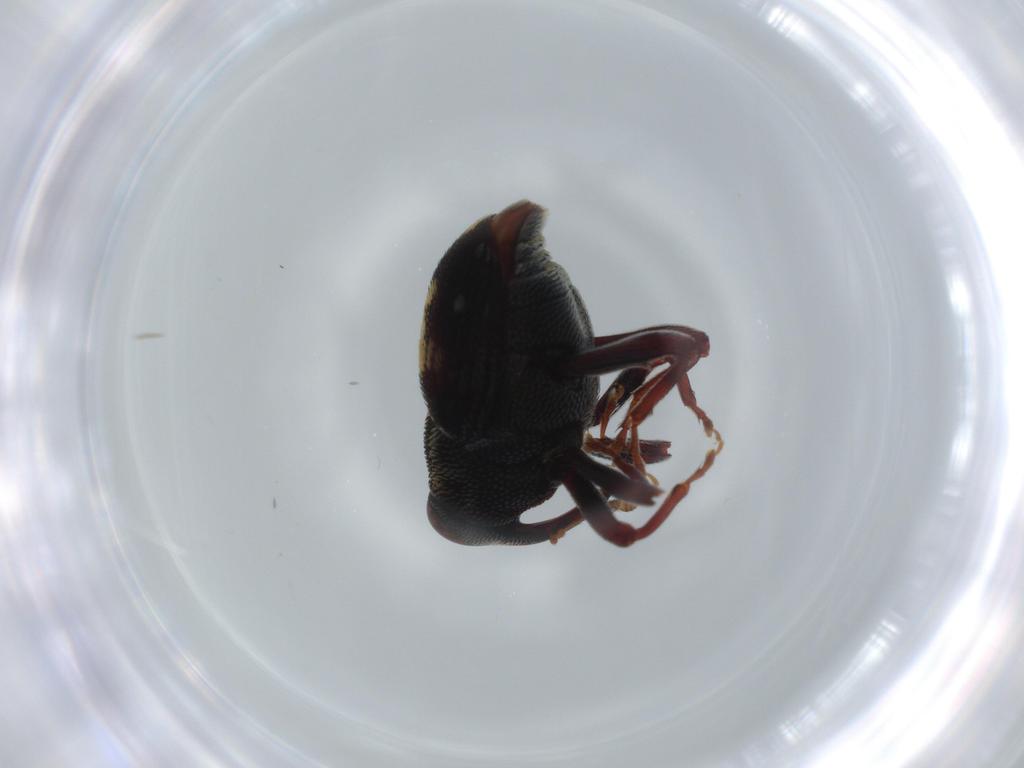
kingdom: Animalia
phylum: Arthropoda
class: Insecta
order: Coleoptera
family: Curculionidae
